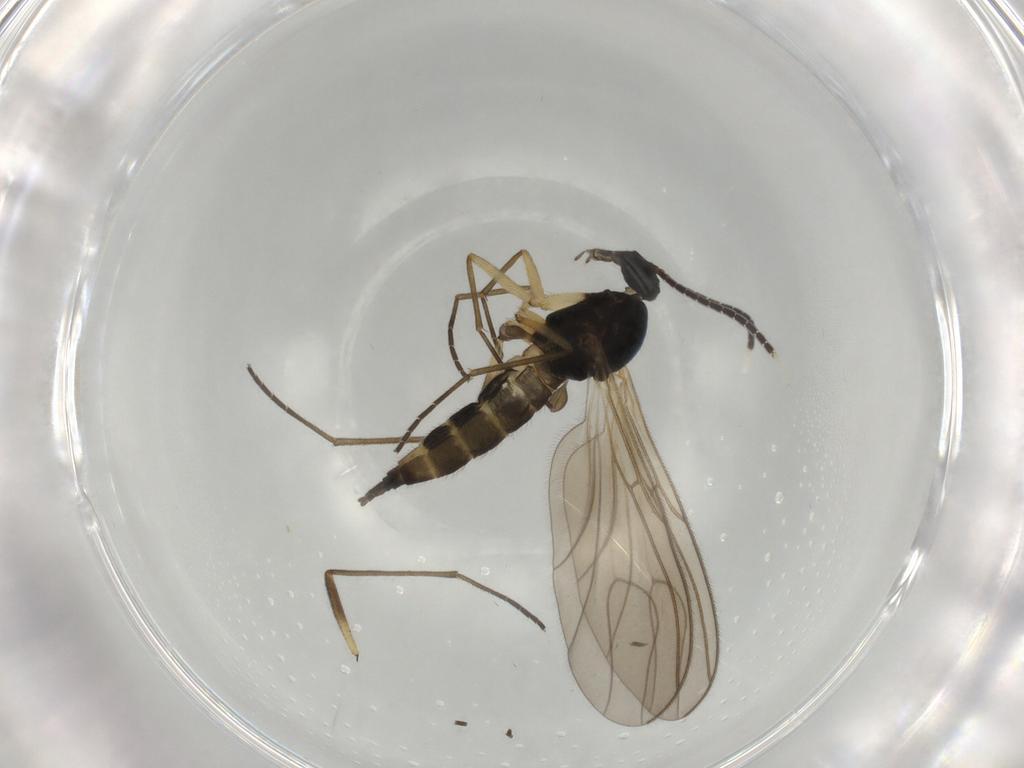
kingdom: Animalia
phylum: Arthropoda
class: Insecta
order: Diptera
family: Sciaridae
